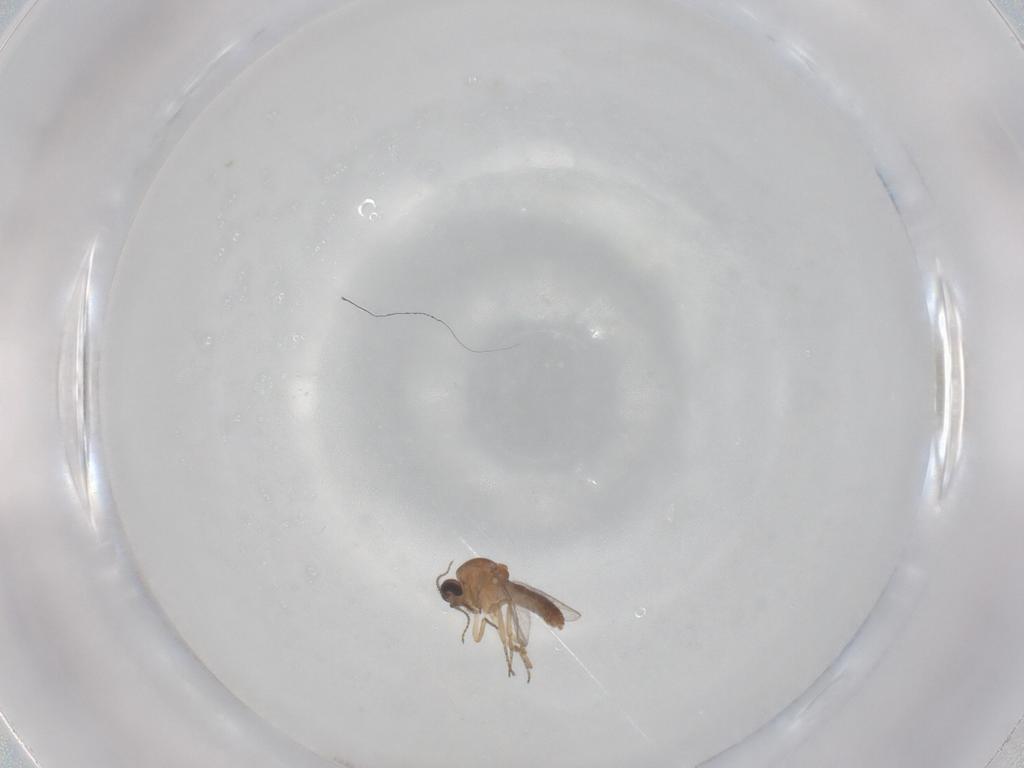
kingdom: Animalia
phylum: Arthropoda
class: Insecta
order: Diptera
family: Ceratopogonidae
